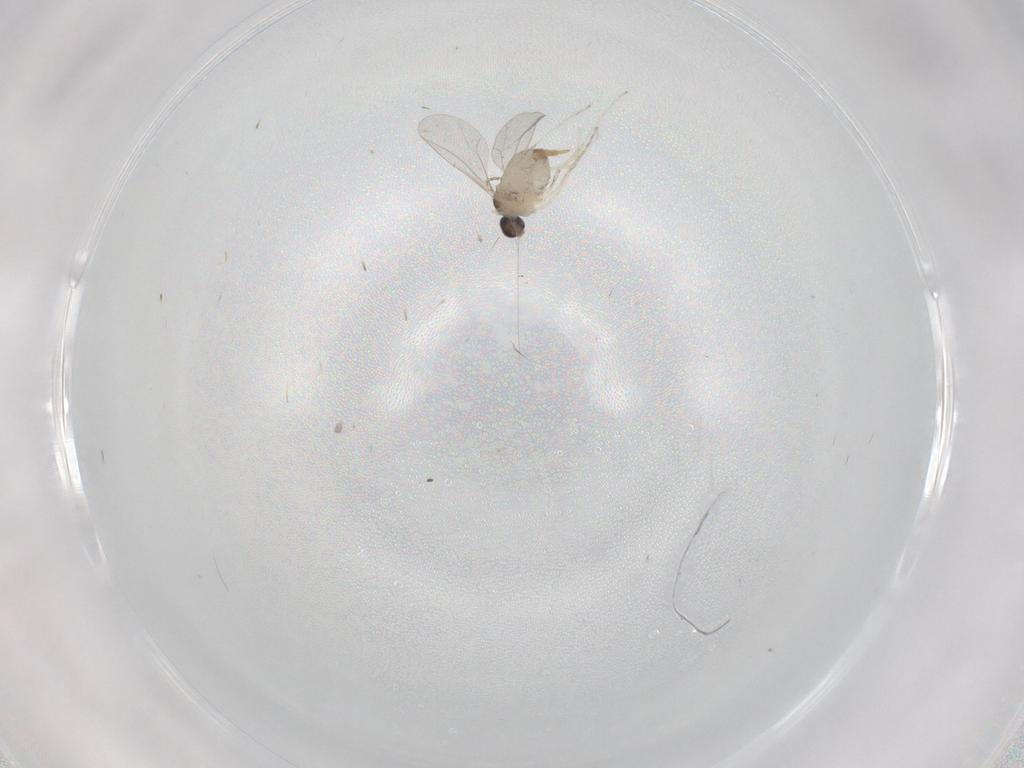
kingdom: Animalia
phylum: Arthropoda
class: Insecta
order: Diptera
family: Cecidomyiidae
